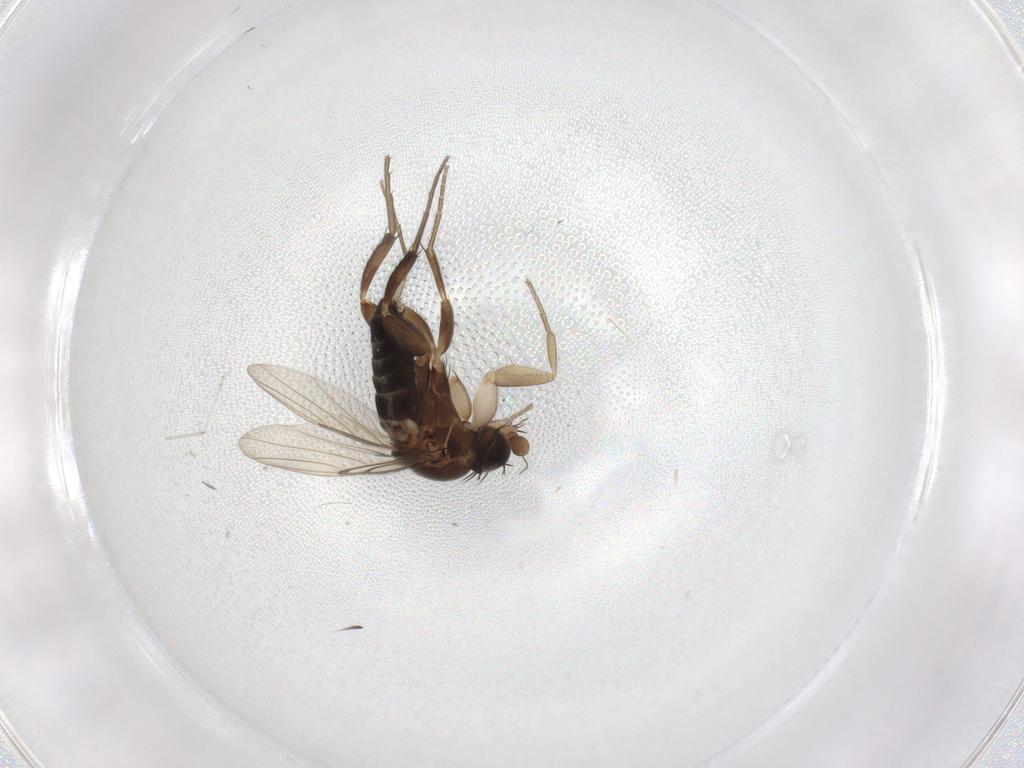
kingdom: Animalia
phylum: Arthropoda
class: Insecta
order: Diptera
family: Phoridae
